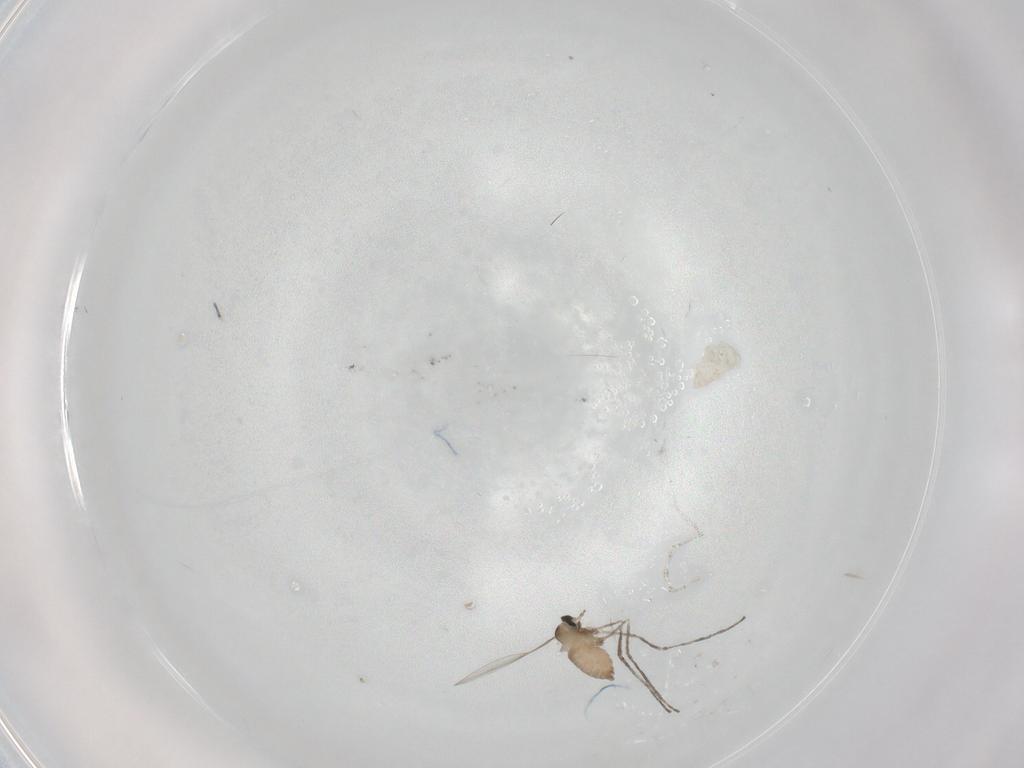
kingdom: Animalia
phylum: Arthropoda
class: Insecta
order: Diptera
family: Cecidomyiidae
